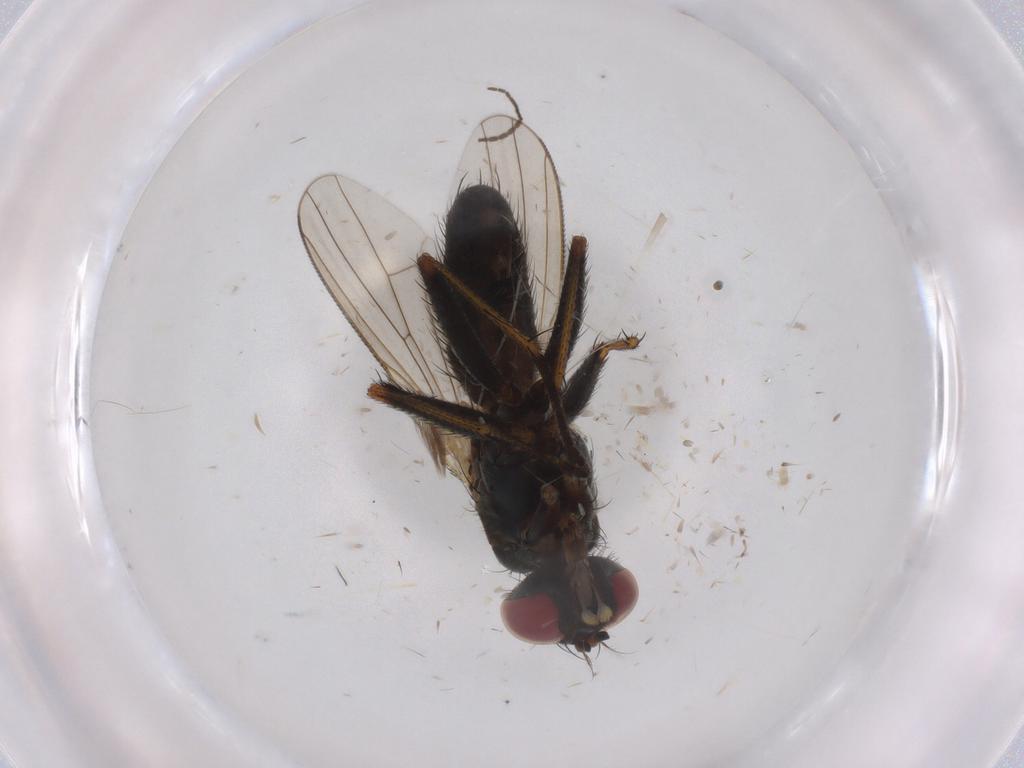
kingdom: Animalia
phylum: Arthropoda
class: Insecta
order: Diptera
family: Muscidae
